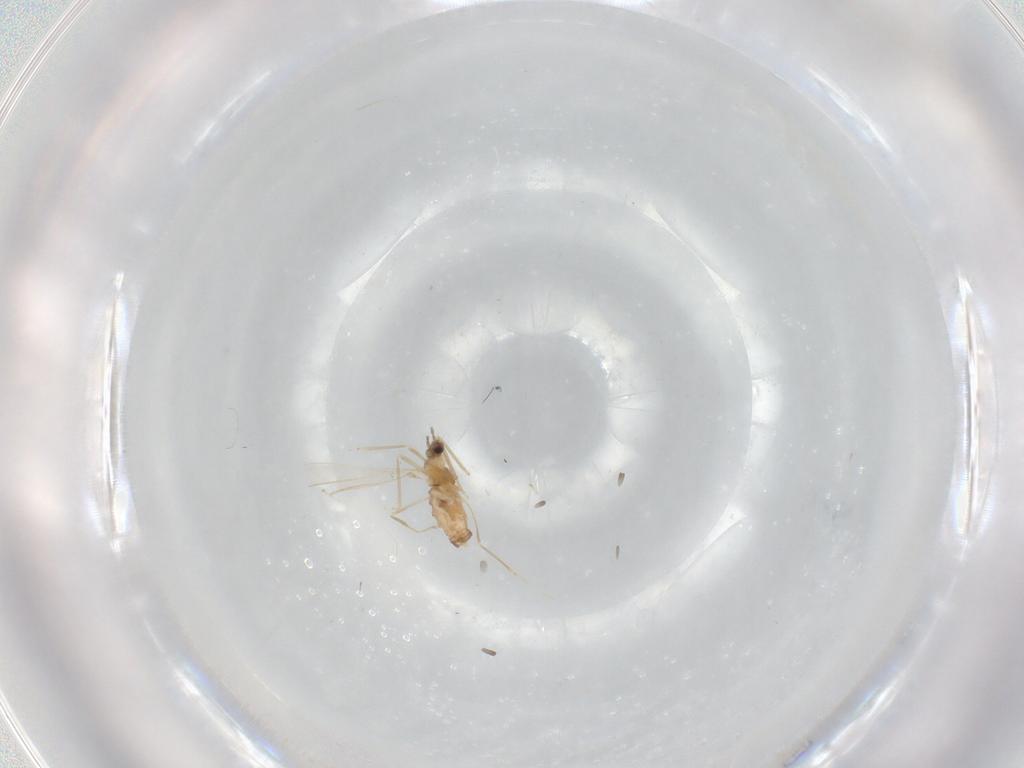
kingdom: Animalia
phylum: Arthropoda
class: Insecta
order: Diptera
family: Cecidomyiidae
